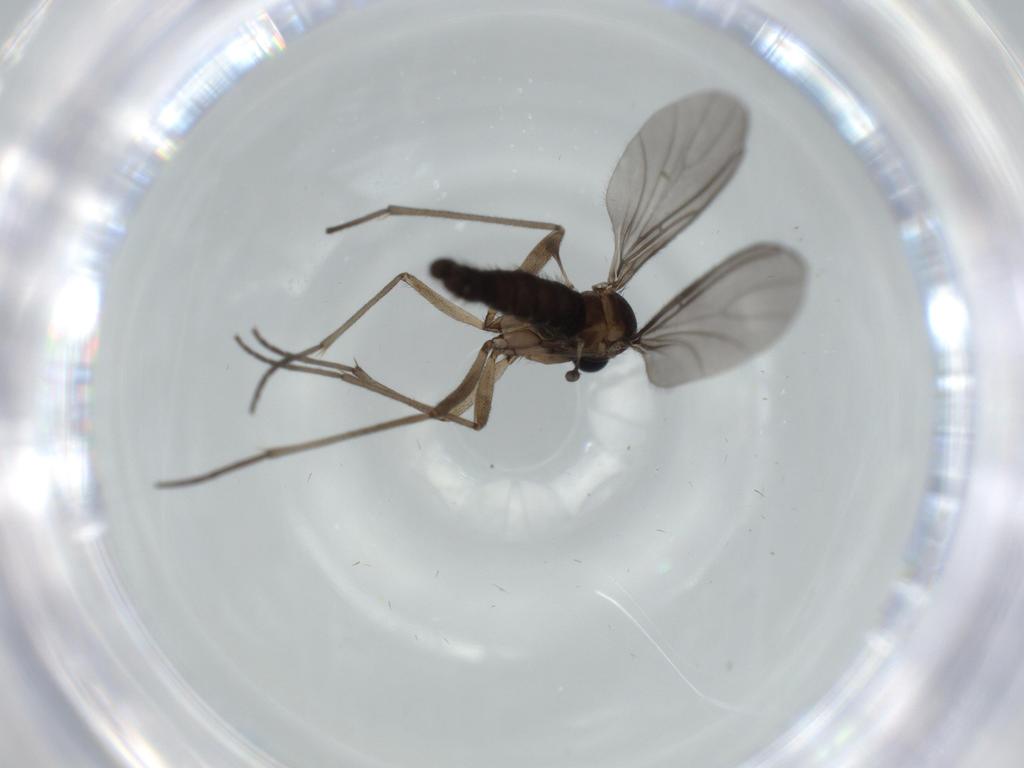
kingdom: Animalia
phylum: Arthropoda
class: Insecta
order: Diptera
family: Sciaridae
